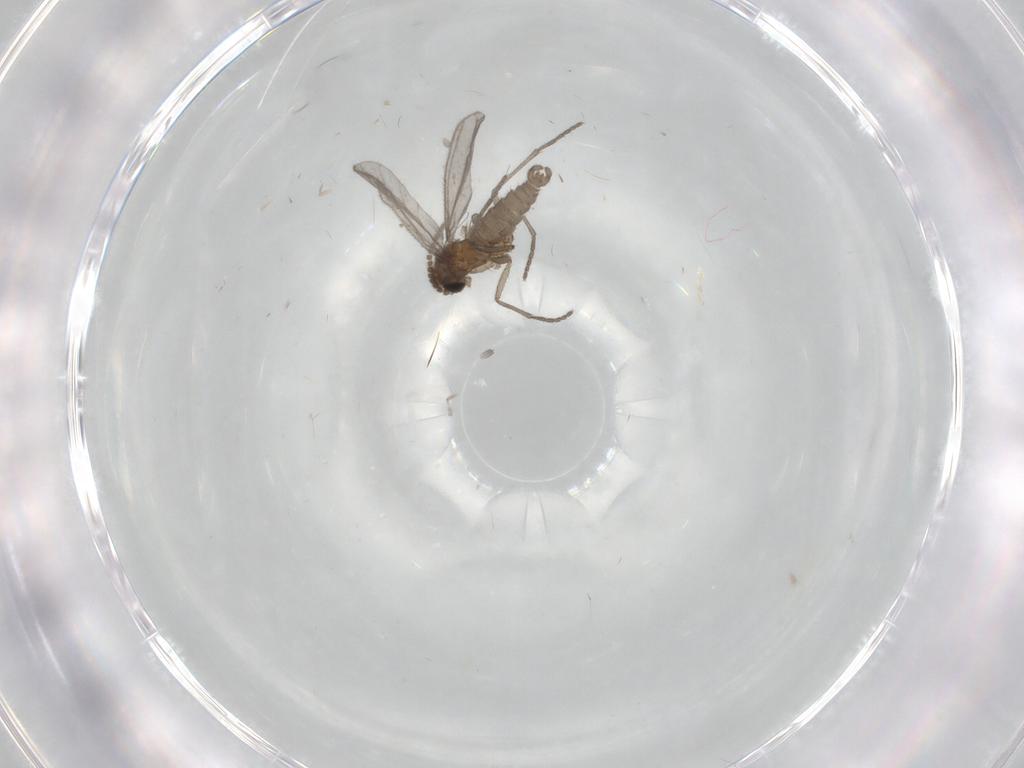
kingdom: Animalia
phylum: Arthropoda
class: Insecta
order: Diptera
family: Sciaridae
